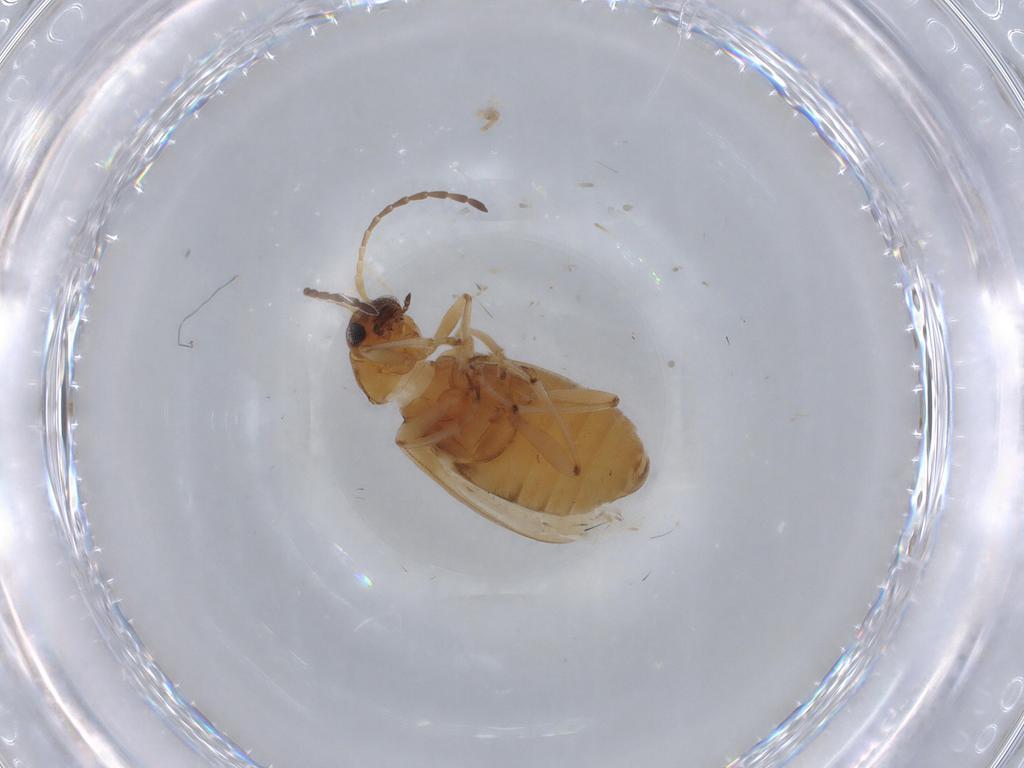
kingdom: Animalia
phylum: Arthropoda
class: Insecta
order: Coleoptera
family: Chrysomelidae
